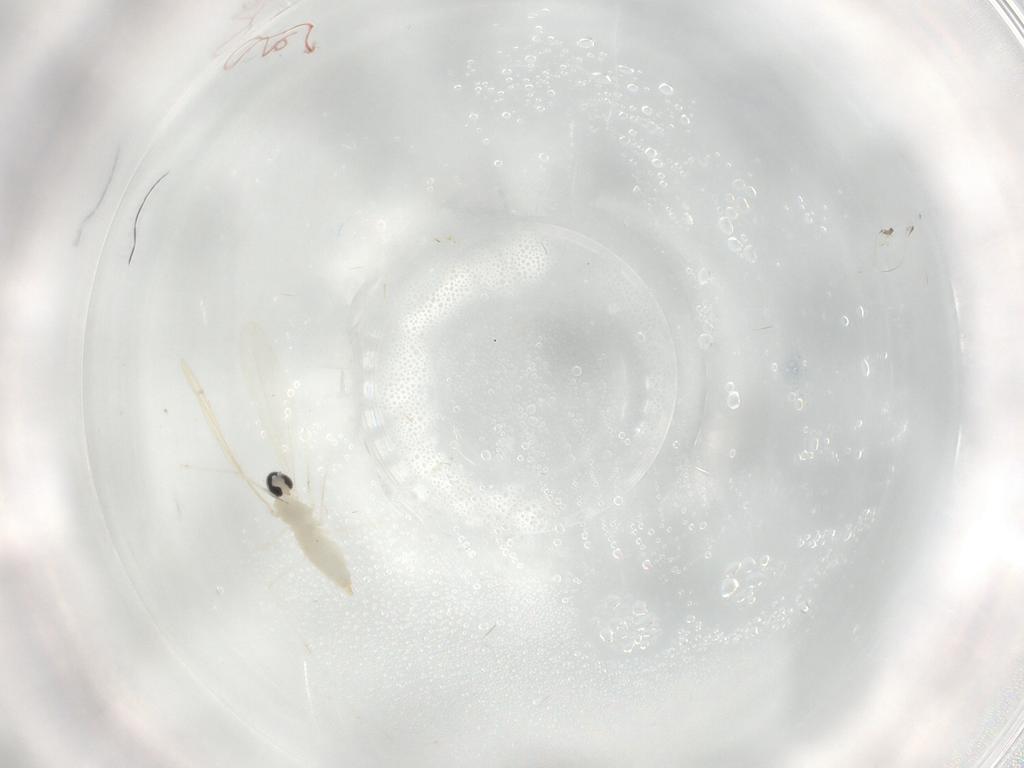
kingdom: Animalia
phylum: Arthropoda
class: Insecta
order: Diptera
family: Cecidomyiidae
